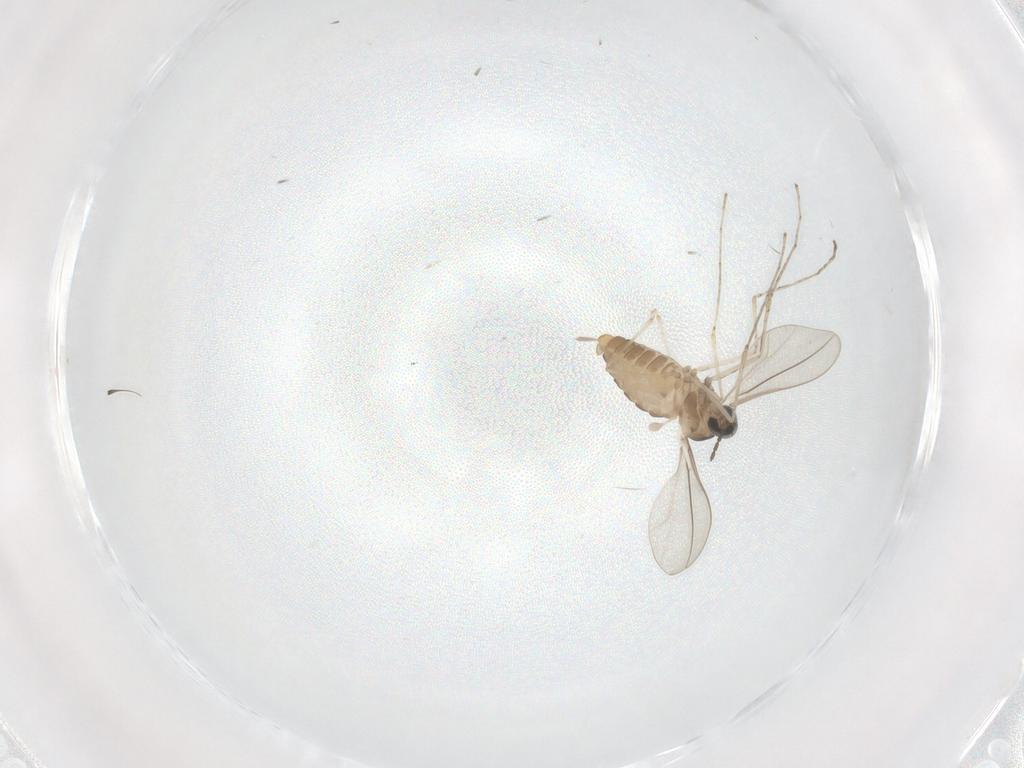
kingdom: Animalia
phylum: Arthropoda
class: Insecta
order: Diptera
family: Cecidomyiidae
